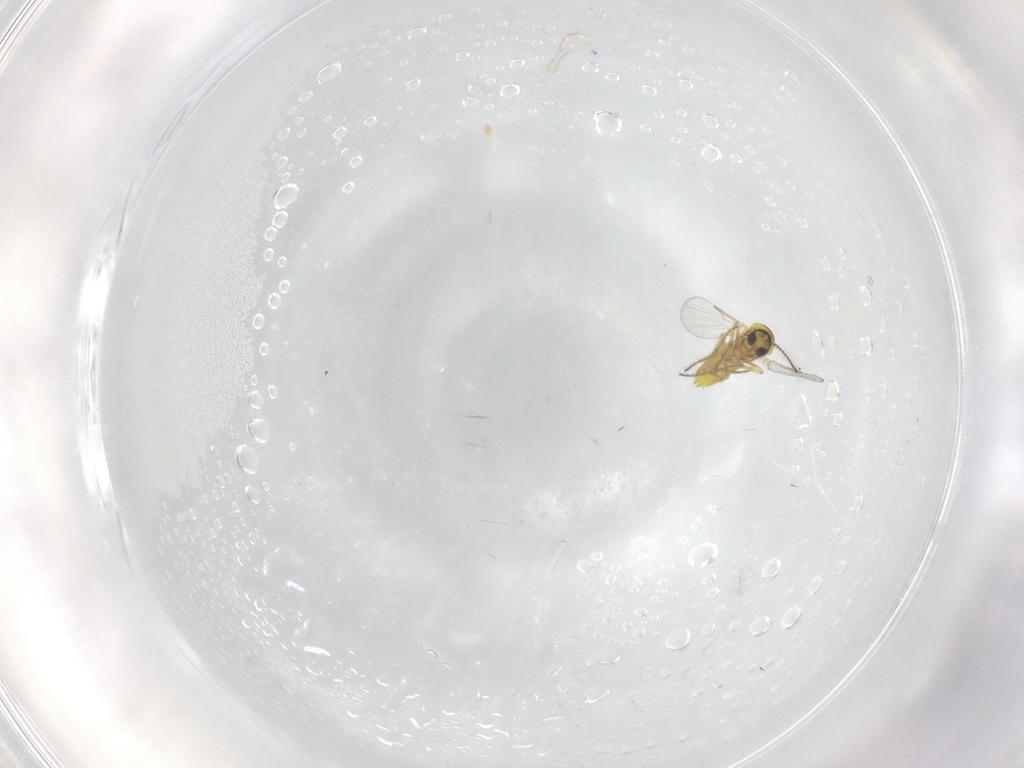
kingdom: Animalia
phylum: Arthropoda
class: Insecta
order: Diptera
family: Ceratopogonidae
